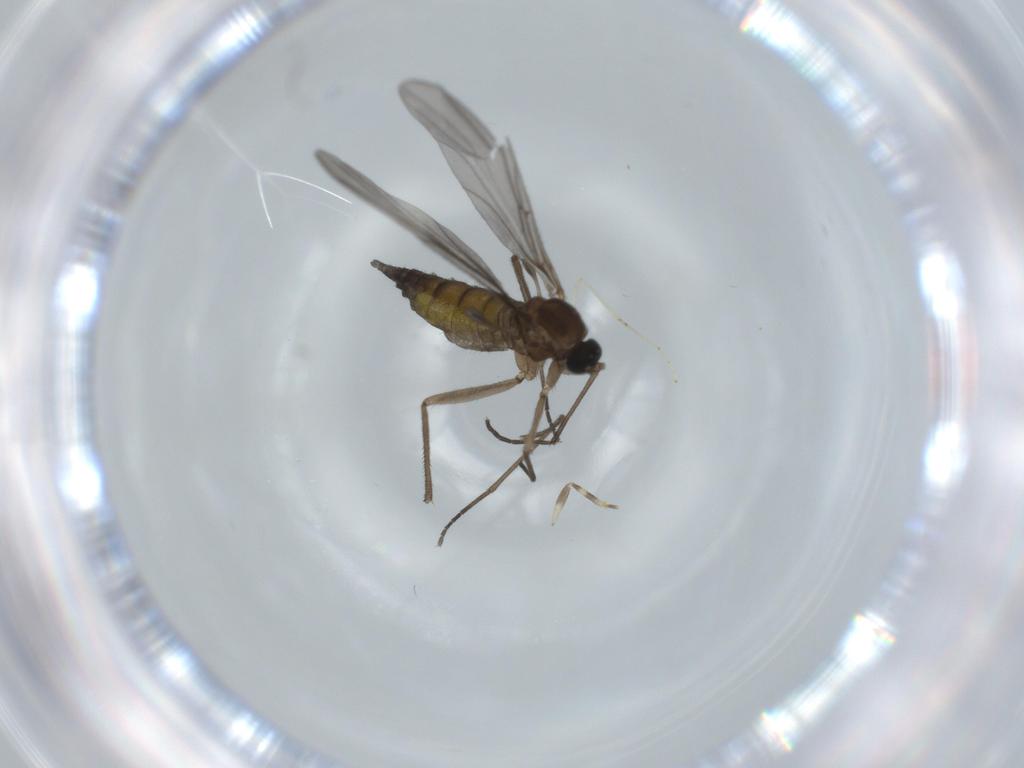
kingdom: Animalia
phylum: Arthropoda
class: Insecta
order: Diptera
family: Sciaridae
